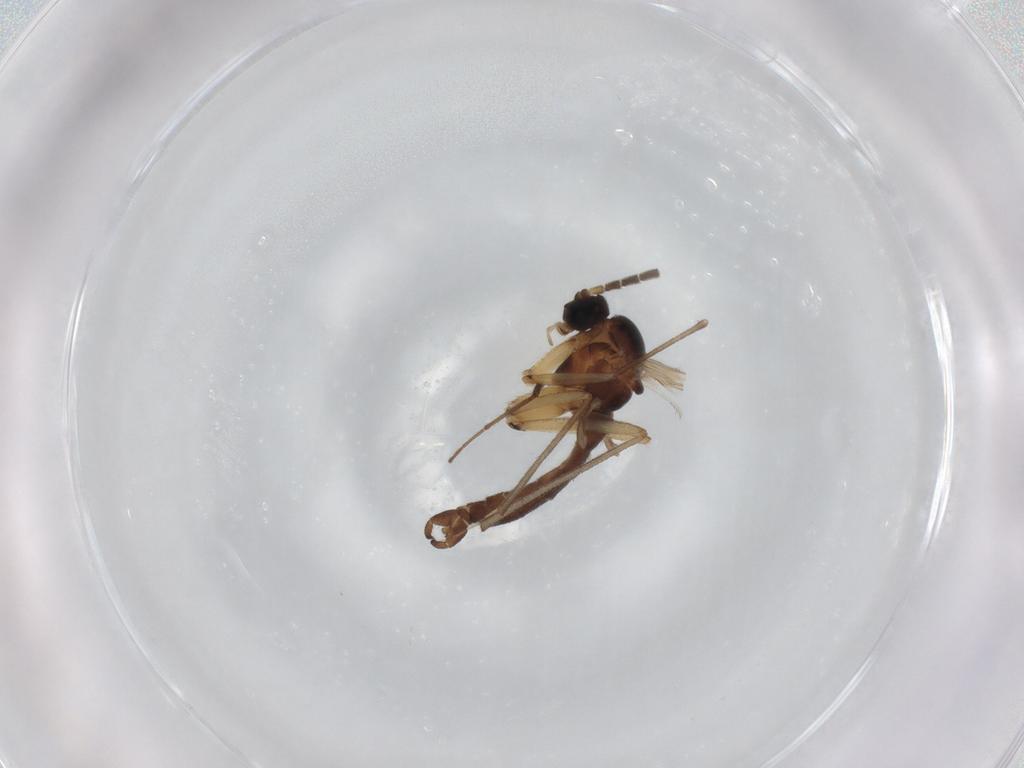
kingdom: Animalia
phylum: Arthropoda
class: Insecta
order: Diptera
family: Sciaridae
